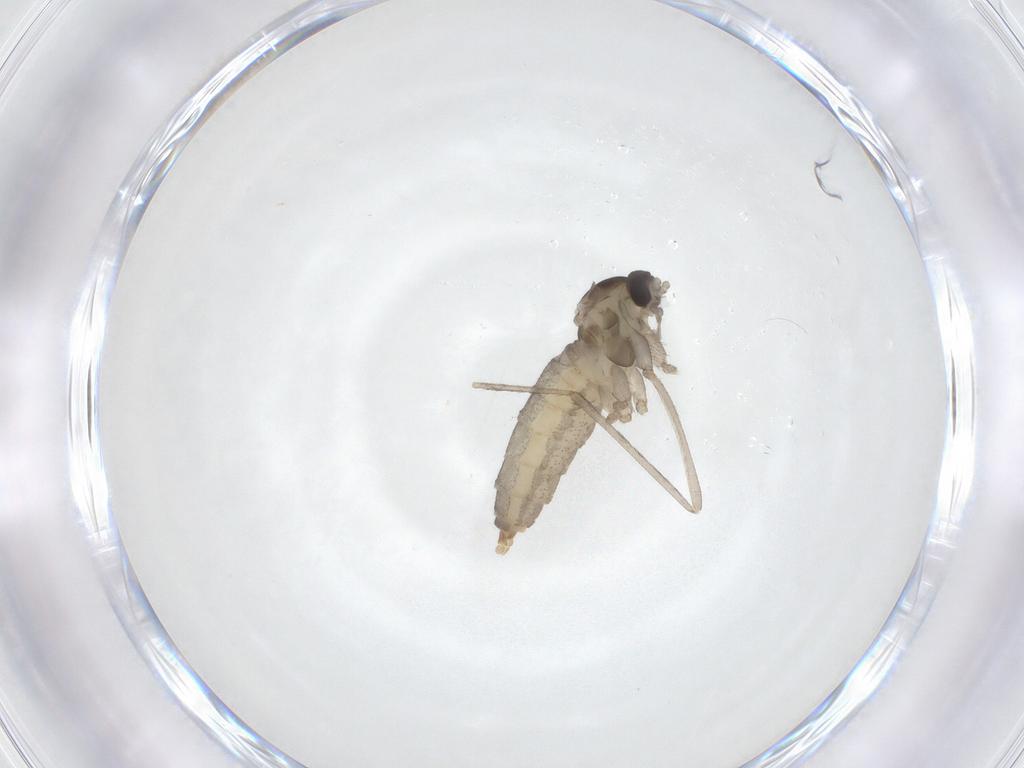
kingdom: Animalia
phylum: Arthropoda
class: Insecta
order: Diptera
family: Cecidomyiidae
